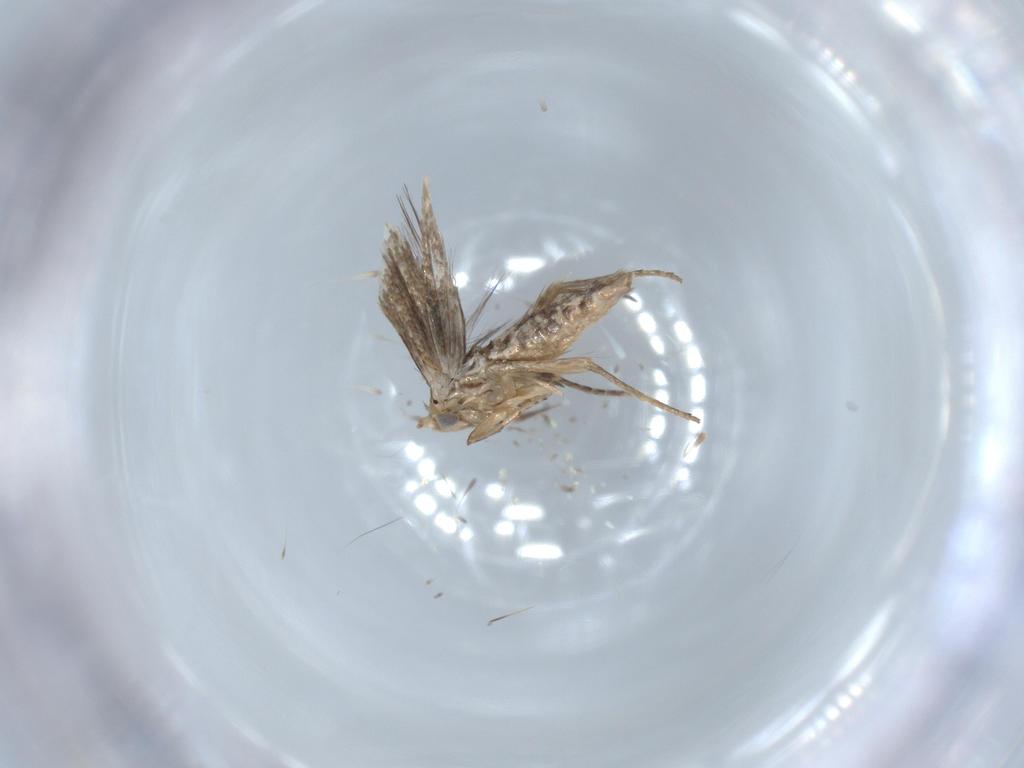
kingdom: Animalia
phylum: Arthropoda
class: Insecta
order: Lepidoptera
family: Bucculatricidae
